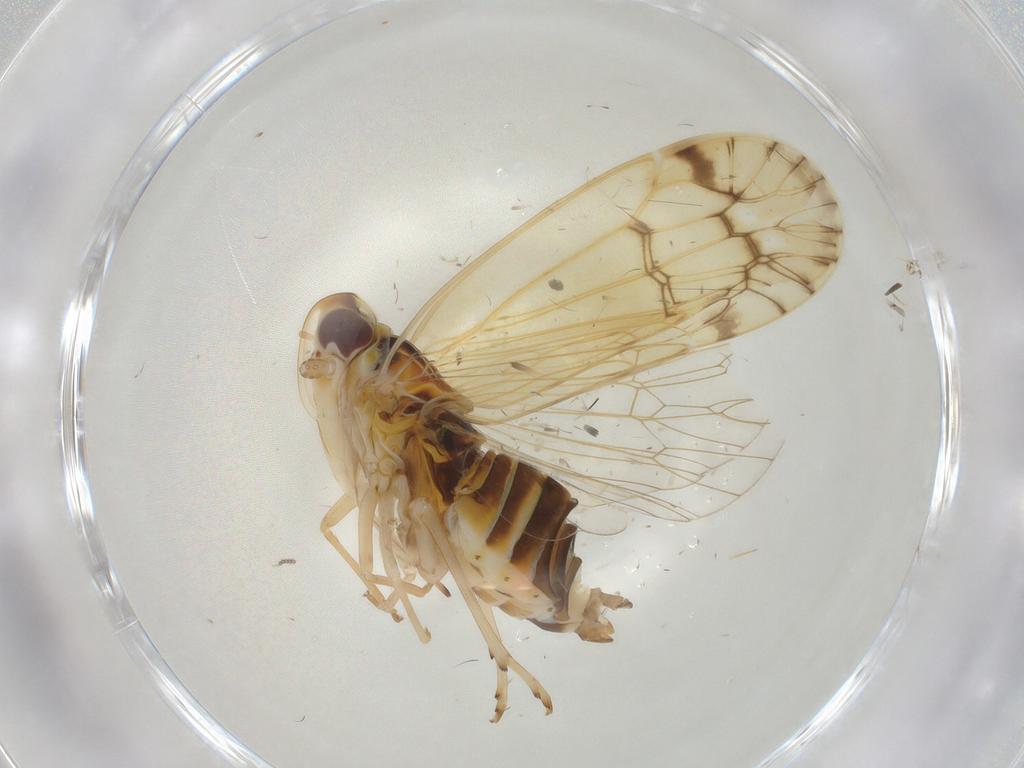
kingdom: Animalia
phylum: Arthropoda
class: Insecta
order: Hymenoptera
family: Dryinidae
